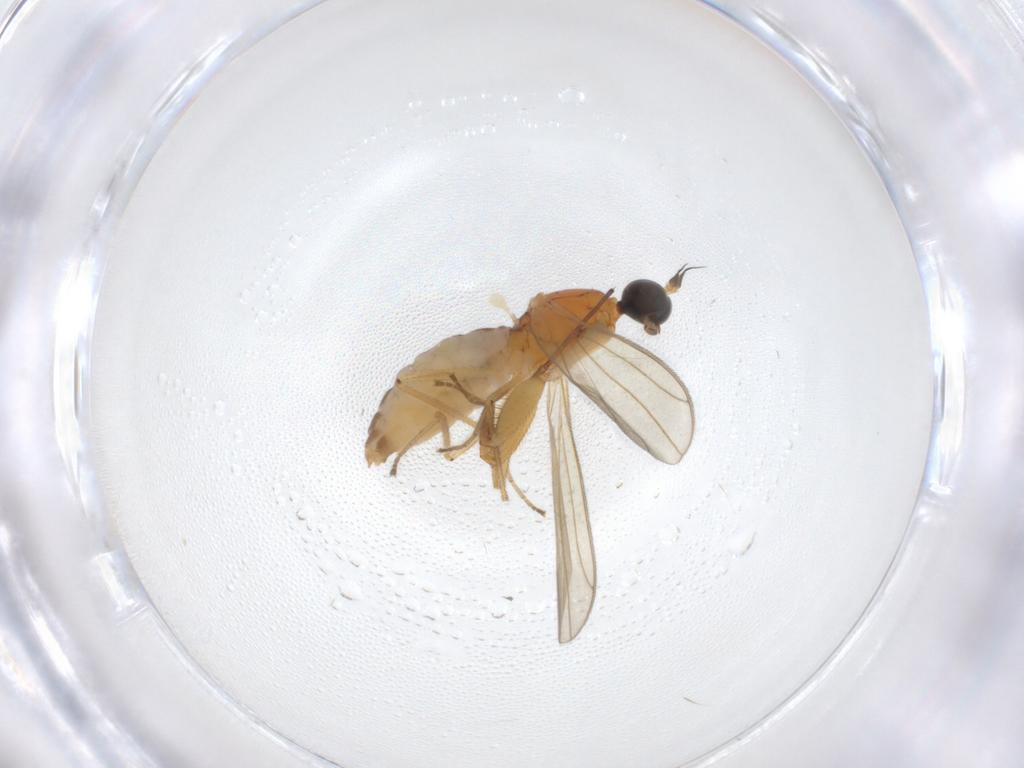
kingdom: Animalia
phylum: Arthropoda
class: Insecta
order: Diptera
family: Empididae
